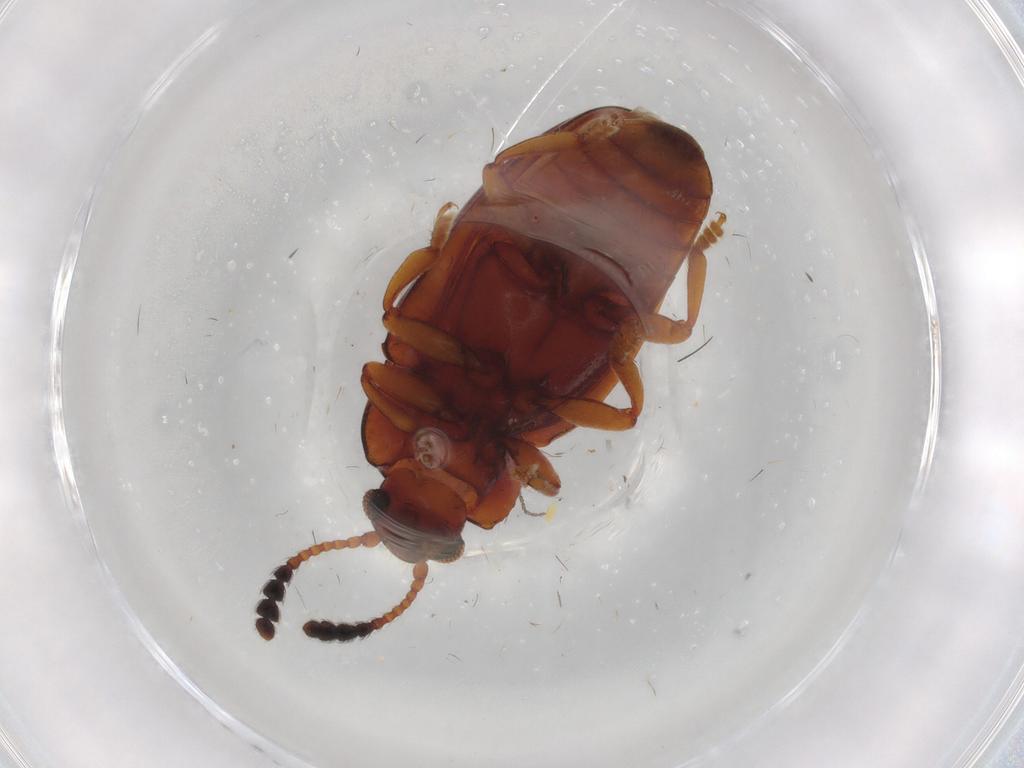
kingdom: Animalia
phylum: Arthropoda
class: Insecta
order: Coleoptera
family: Erotylidae
